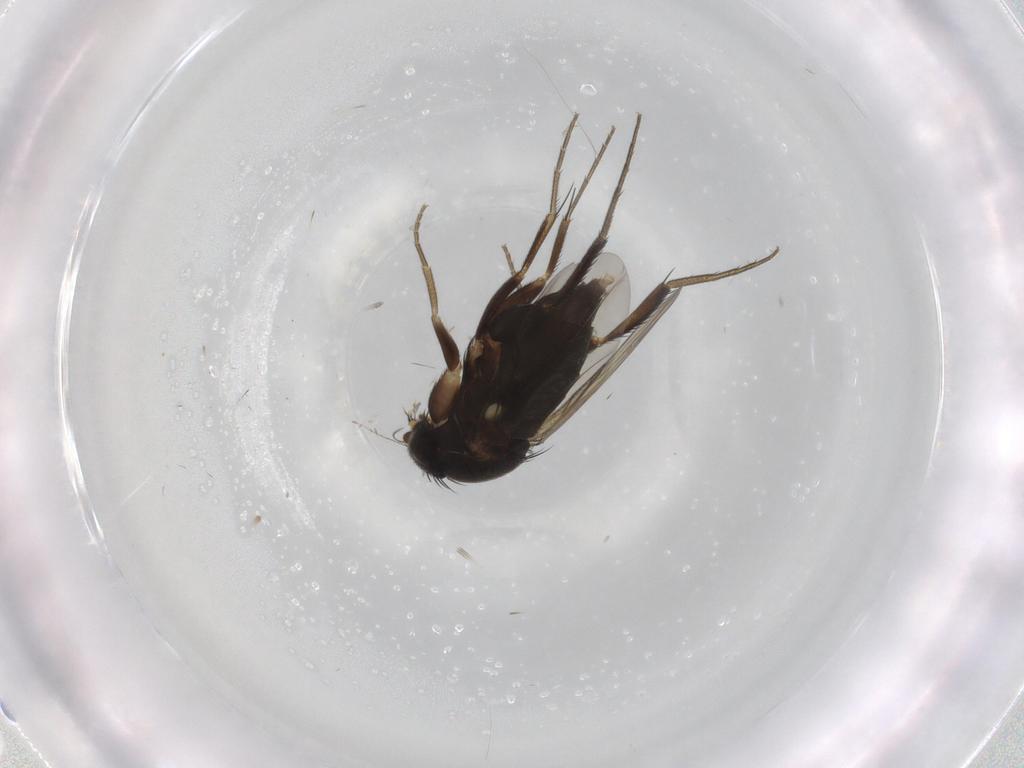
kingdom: Animalia
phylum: Arthropoda
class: Insecta
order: Diptera
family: Phoridae
